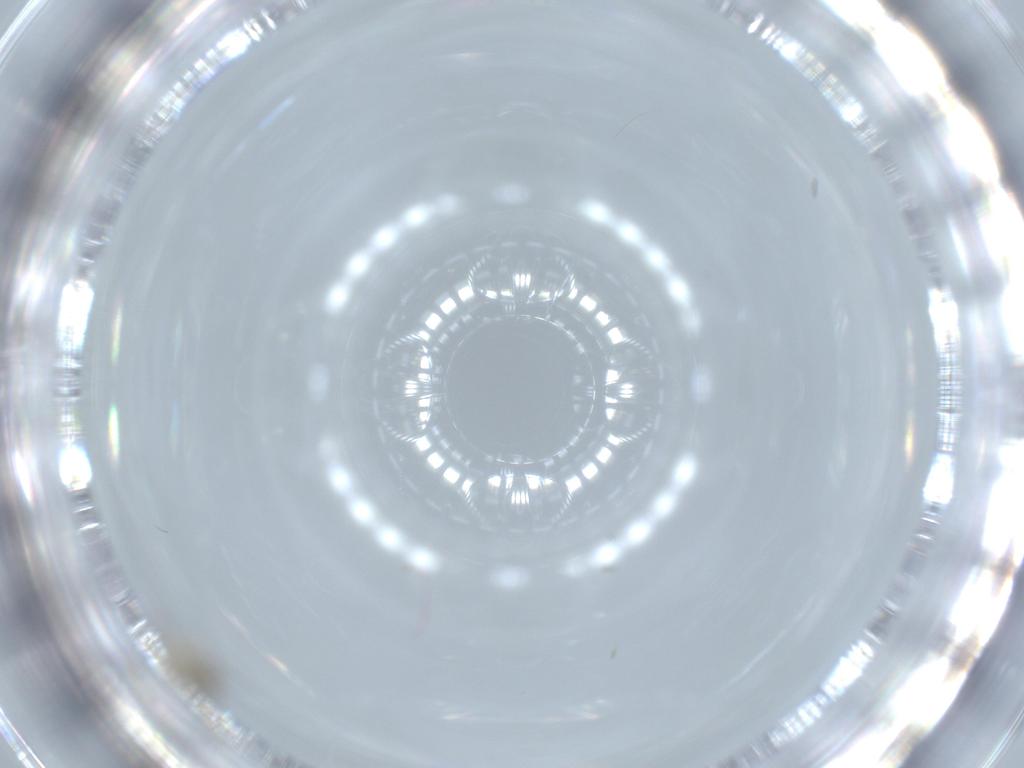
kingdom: Animalia
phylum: Arthropoda
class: Insecta
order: Diptera
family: Cecidomyiidae
